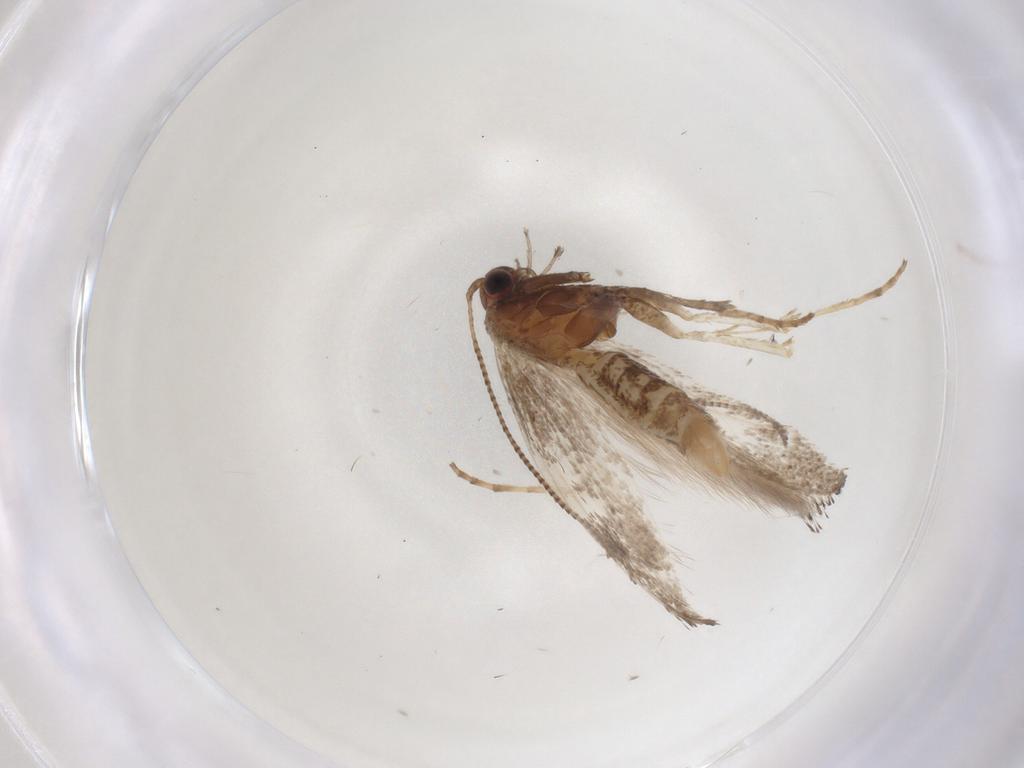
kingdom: Animalia
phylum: Arthropoda
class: Insecta
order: Lepidoptera
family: Gracillariidae
